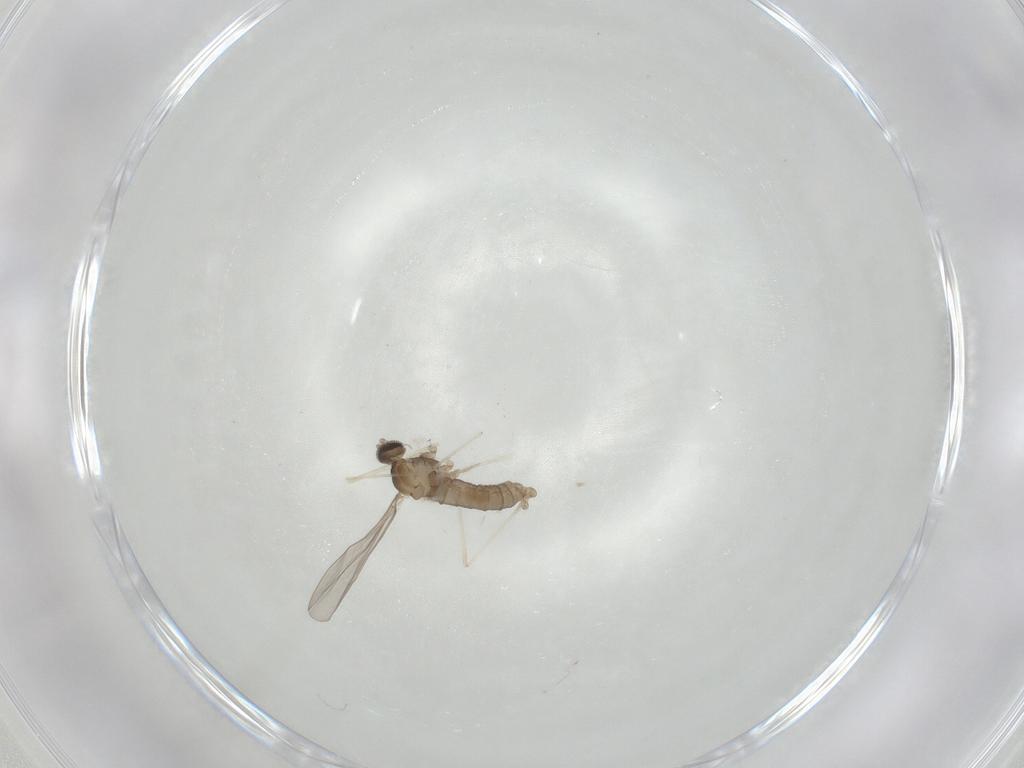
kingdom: Animalia
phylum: Arthropoda
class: Insecta
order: Diptera
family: Cecidomyiidae
